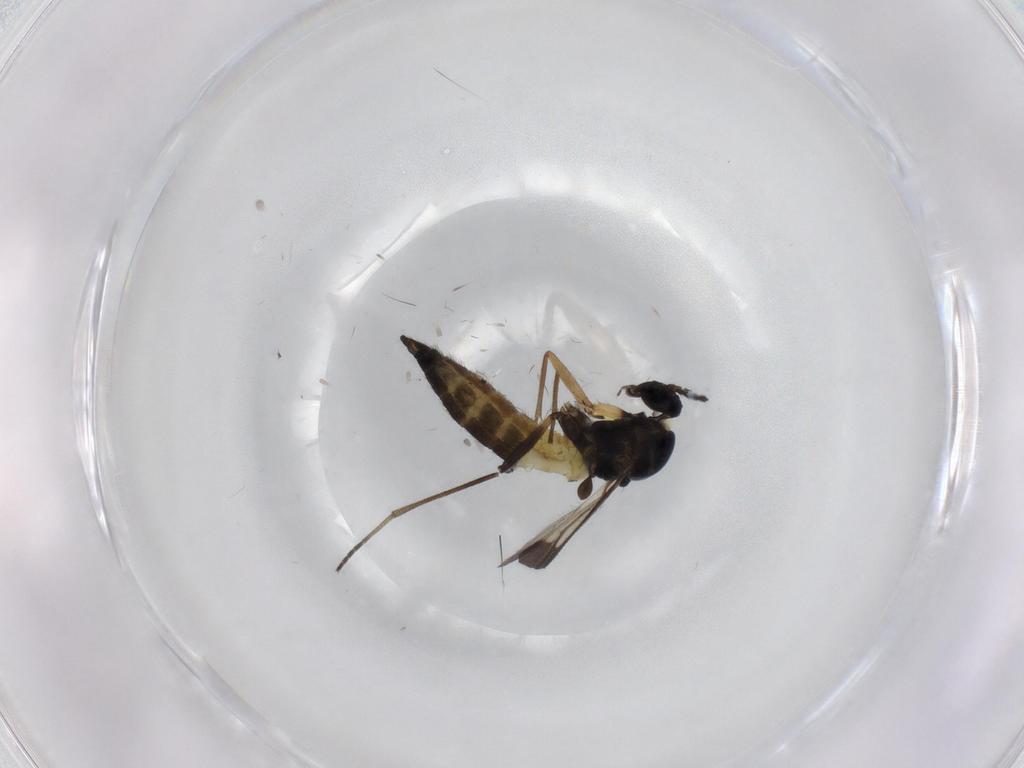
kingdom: Animalia
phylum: Arthropoda
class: Insecta
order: Diptera
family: Sciaridae
